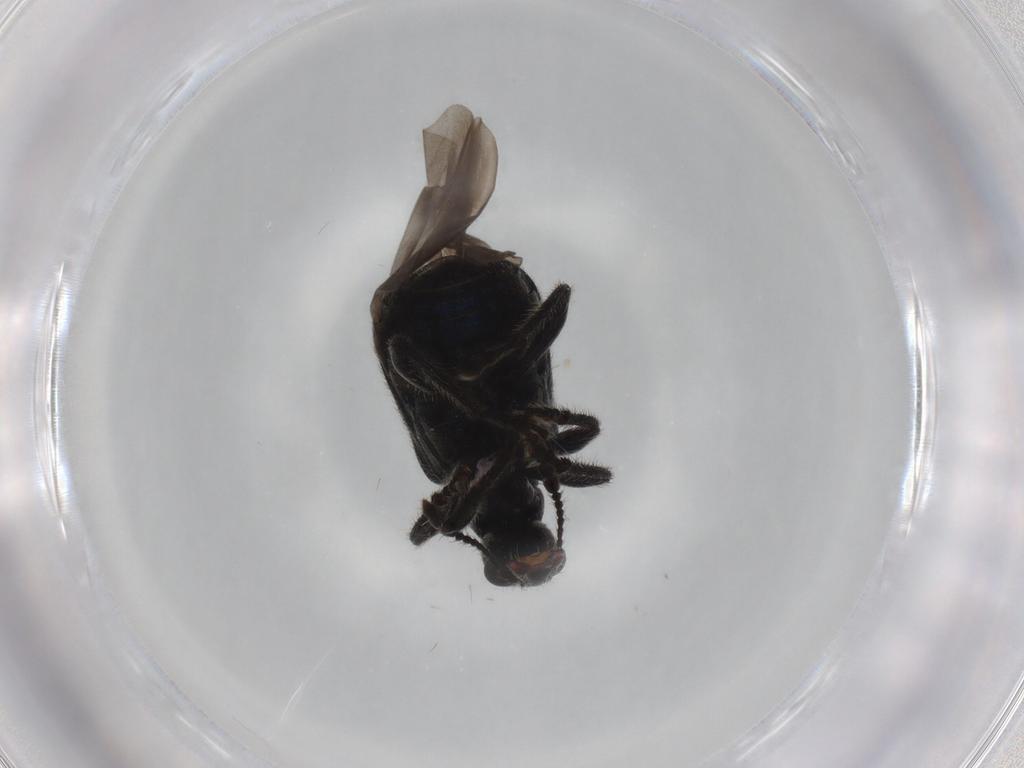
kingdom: Animalia
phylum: Arthropoda
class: Insecta
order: Coleoptera
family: Attelabidae
